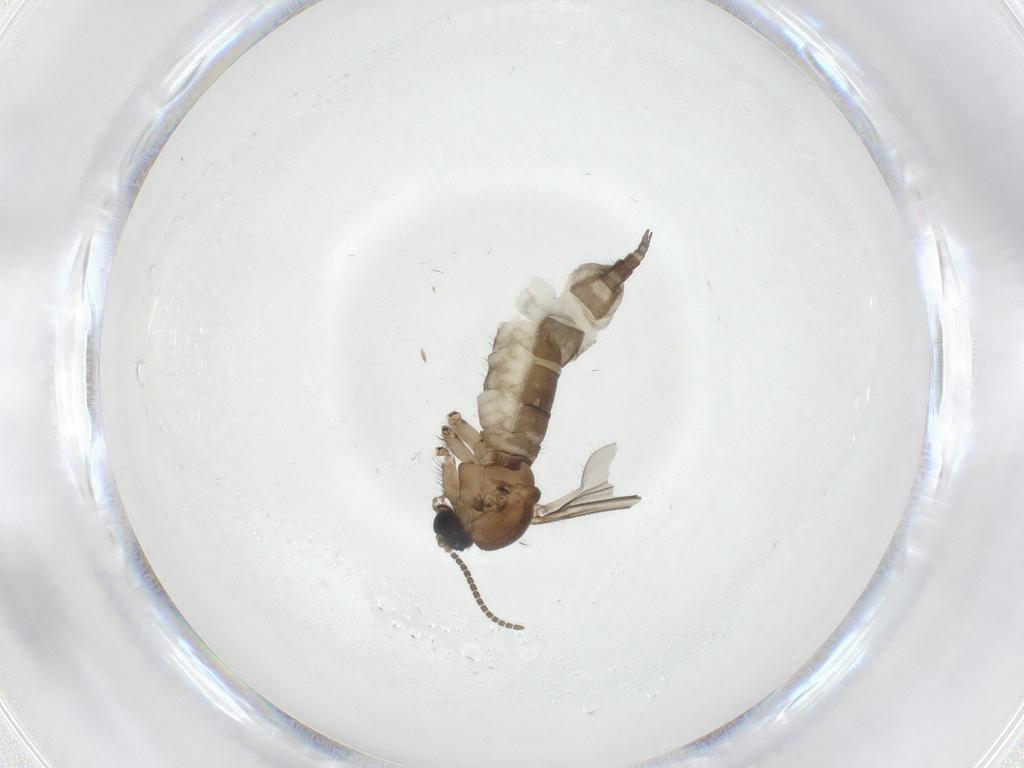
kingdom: Animalia
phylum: Arthropoda
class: Insecta
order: Diptera
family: Sciaridae
